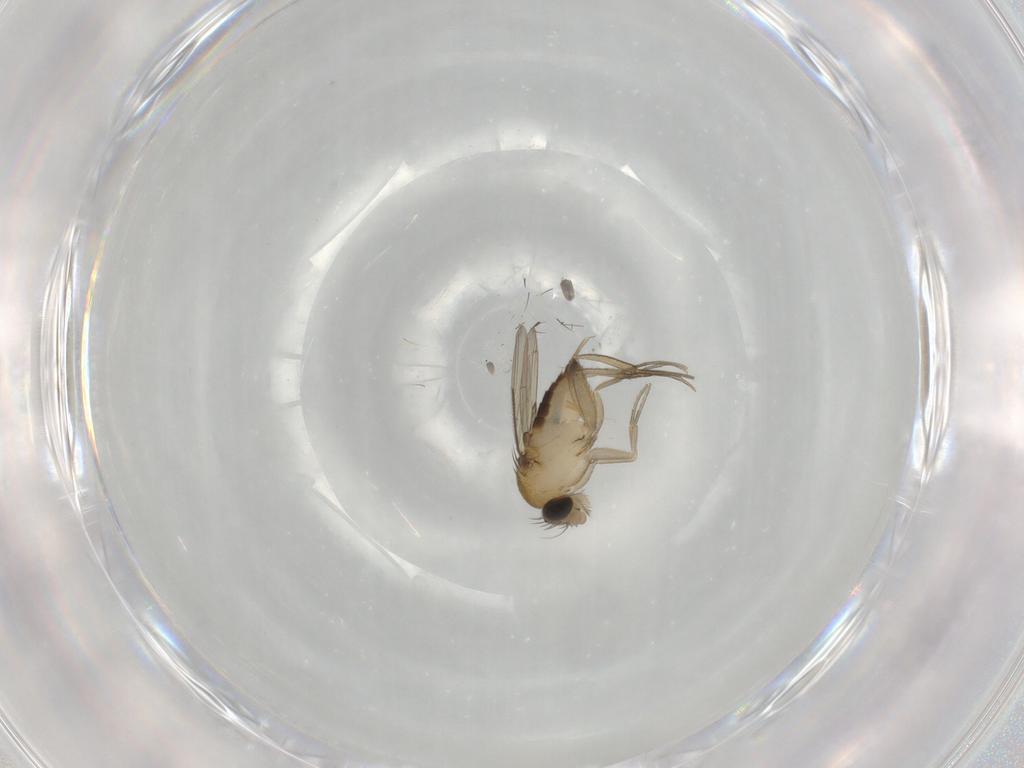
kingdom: Animalia
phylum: Arthropoda
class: Insecta
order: Diptera
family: Phoridae
